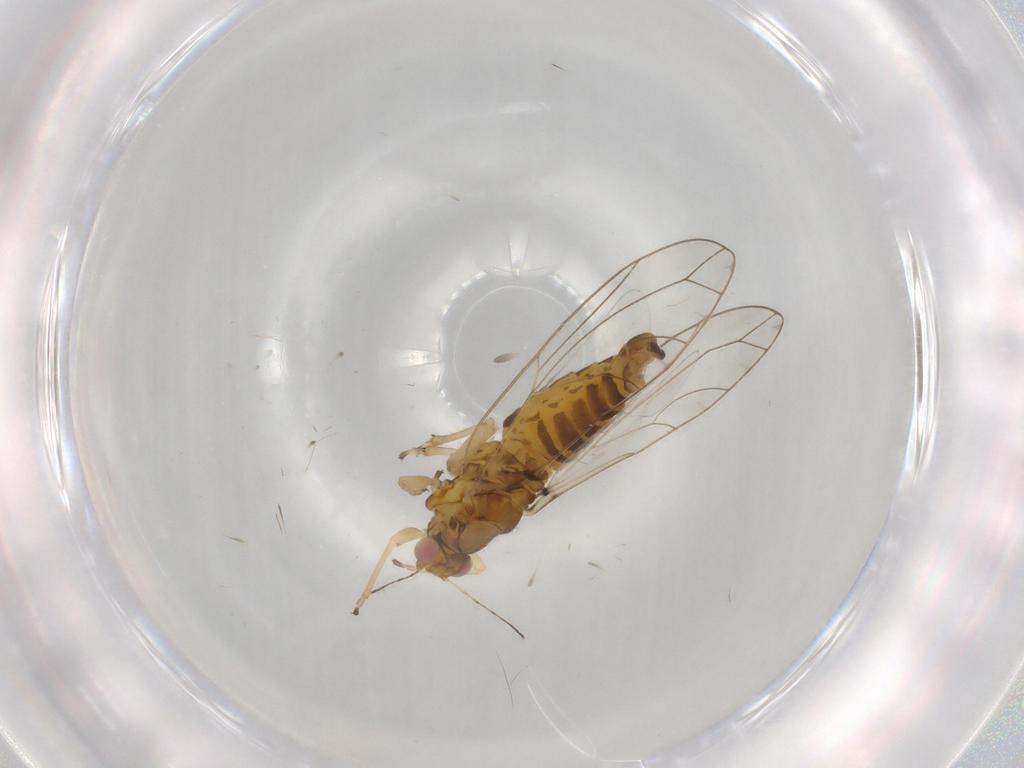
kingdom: Animalia
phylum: Arthropoda
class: Insecta
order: Hemiptera
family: Triozidae
